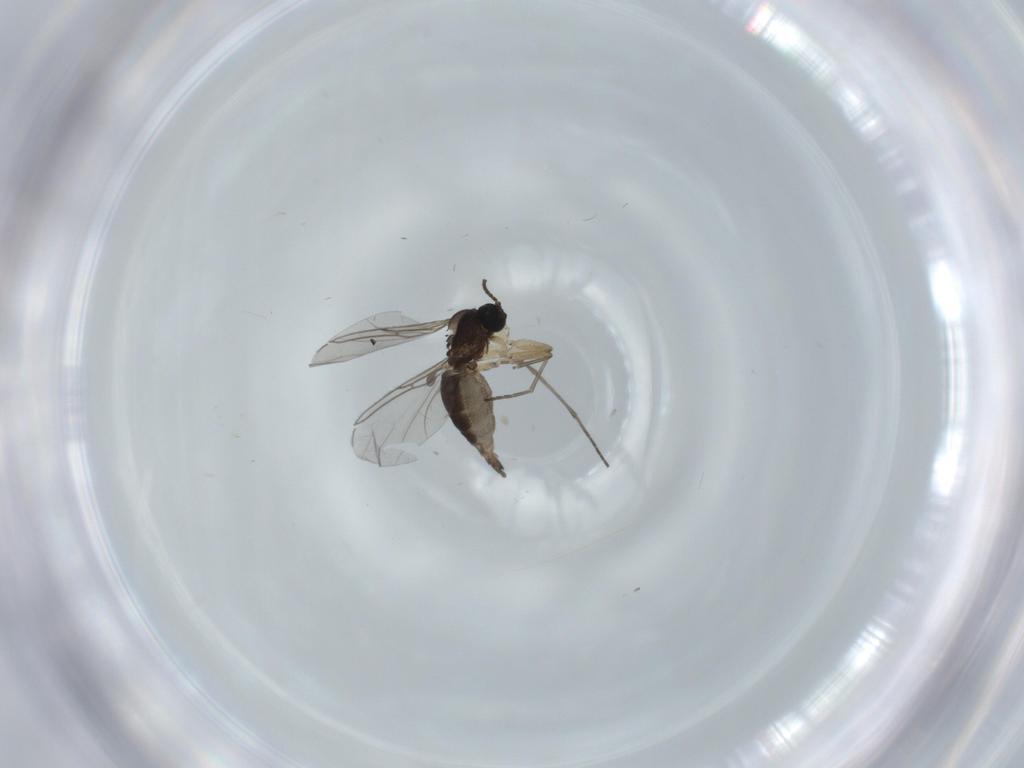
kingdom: Animalia
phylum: Arthropoda
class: Insecta
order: Diptera
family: Sciaridae
